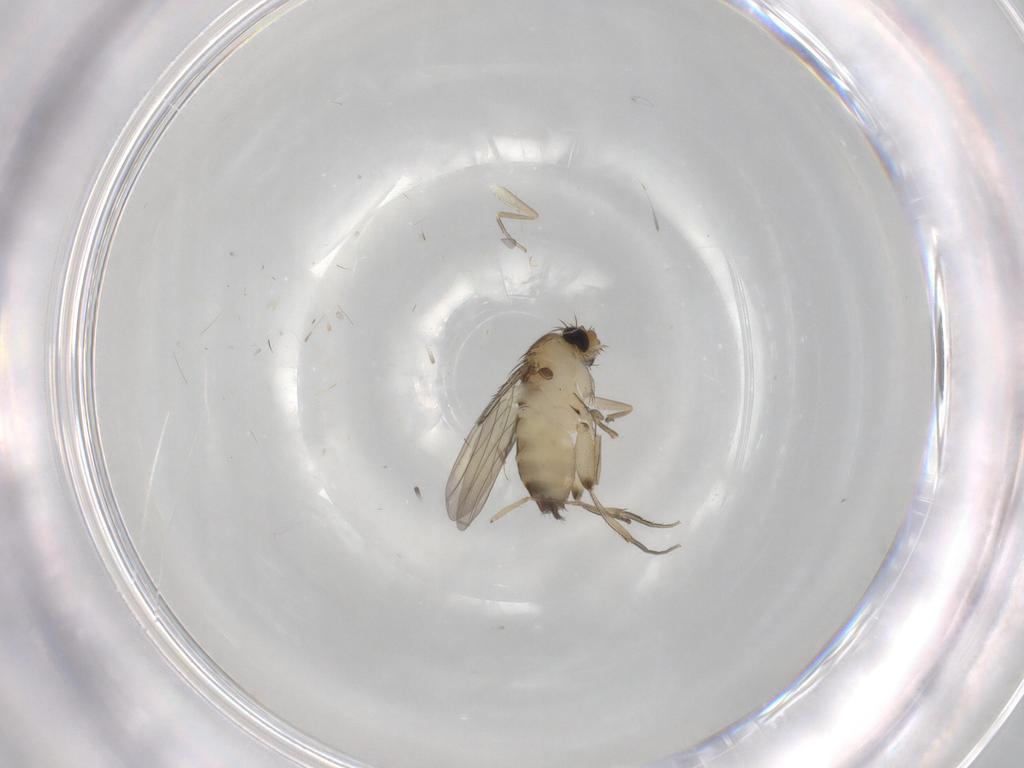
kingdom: Animalia
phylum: Arthropoda
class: Insecta
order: Diptera
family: Phoridae
